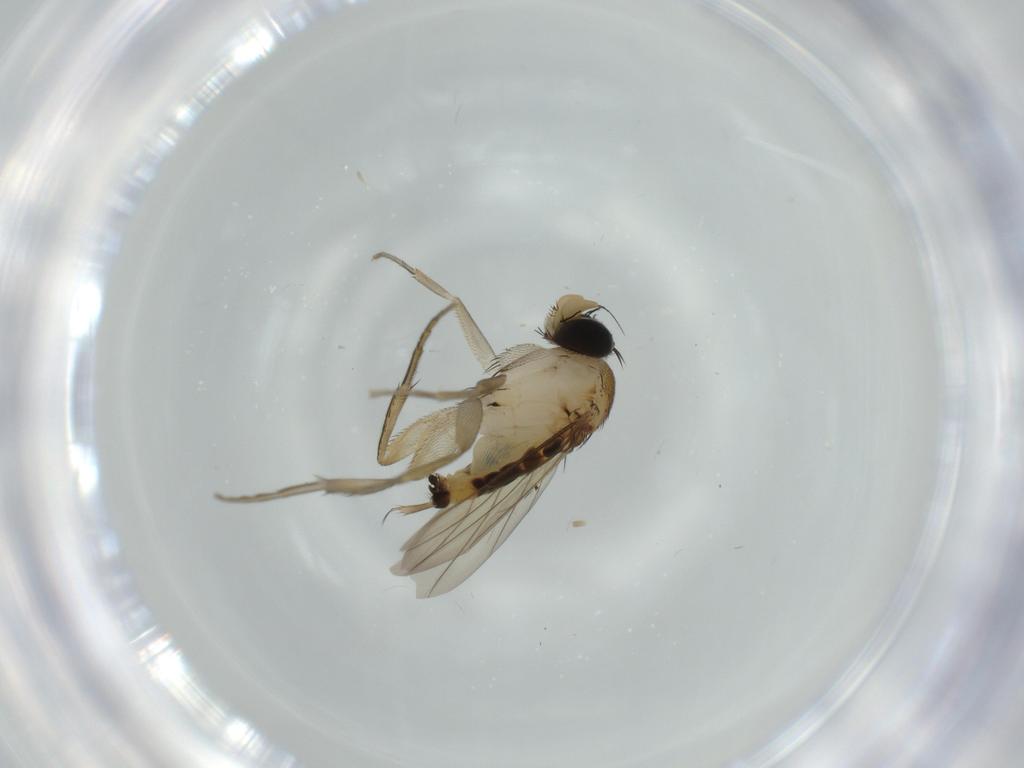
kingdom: Animalia
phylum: Arthropoda
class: Insecta
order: Diptera
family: Phoridae
